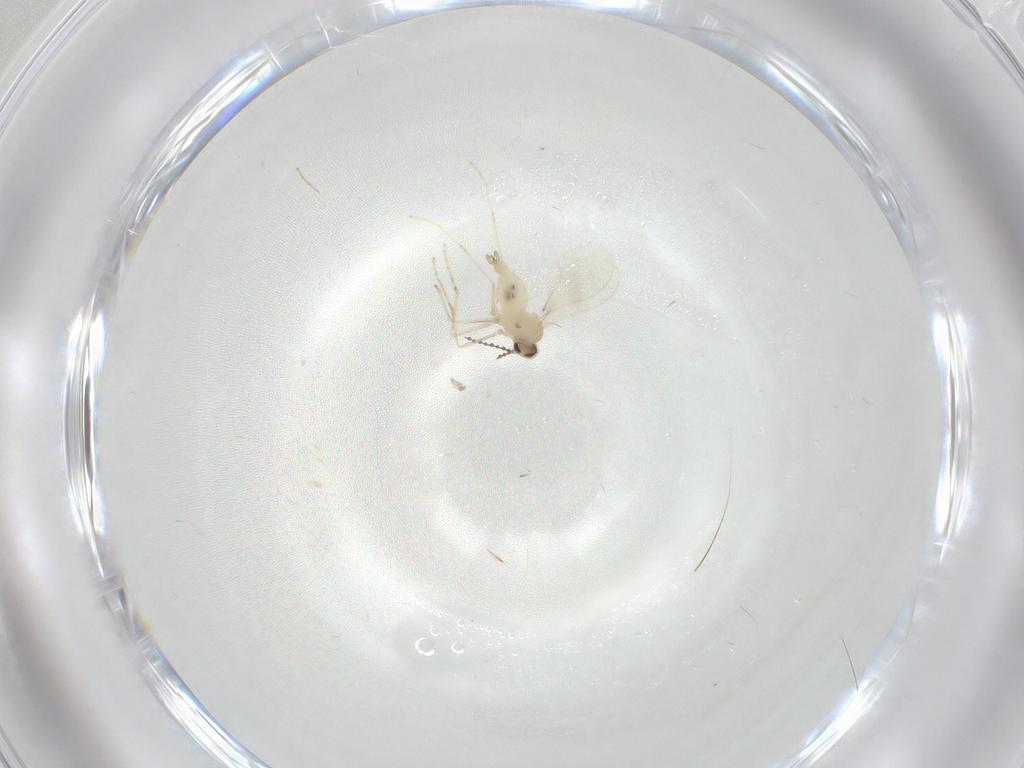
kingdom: Animalia
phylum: Arthropoda
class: Insecta
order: Diptera
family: Cecidomyiidae
